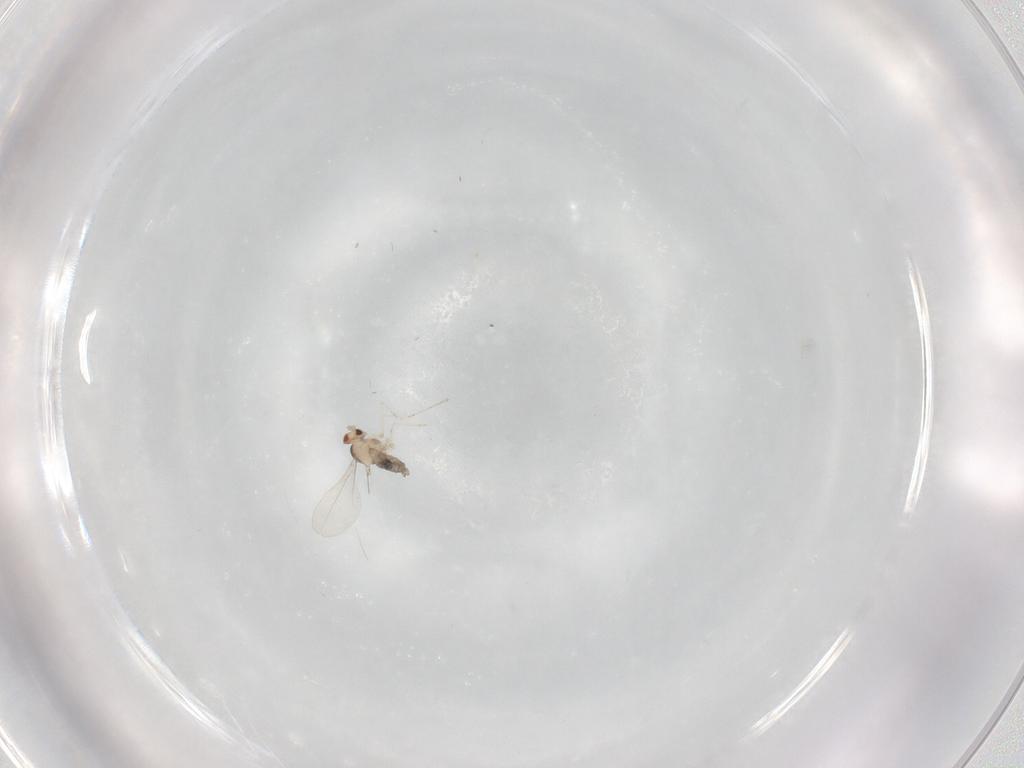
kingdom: Animalia
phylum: Arthropoda
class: Insecta
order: Diptera
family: Sciaridae
